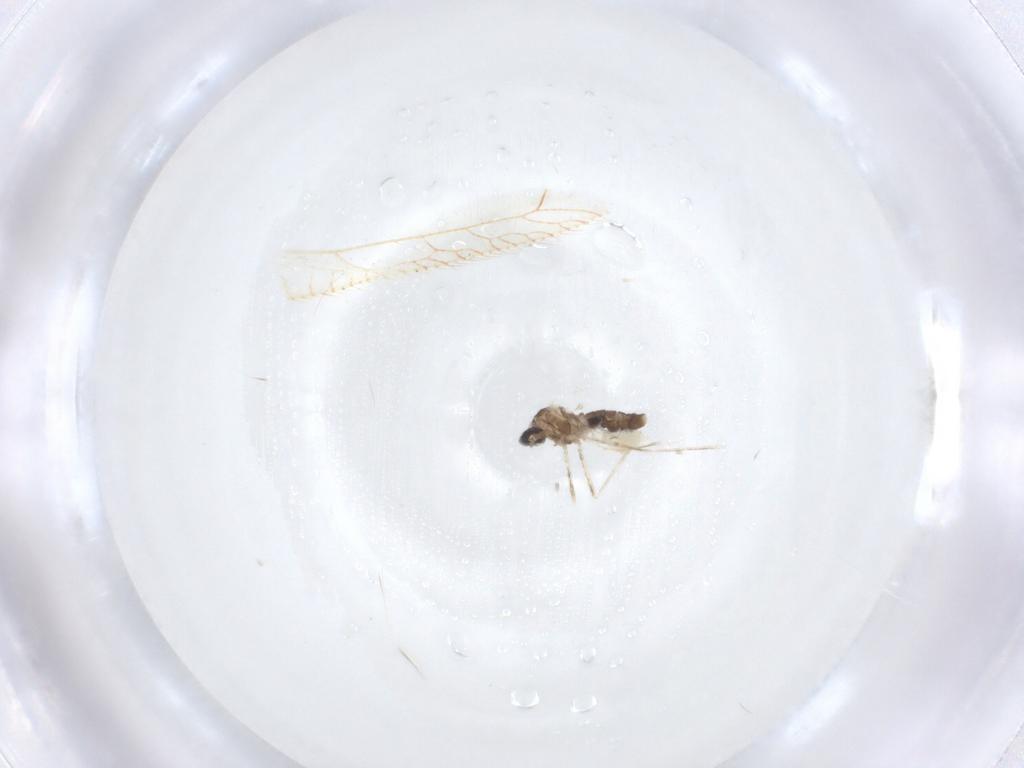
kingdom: Animalia
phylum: Arthropoda
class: Insecta
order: Diptera
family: Cecidomyiidae
